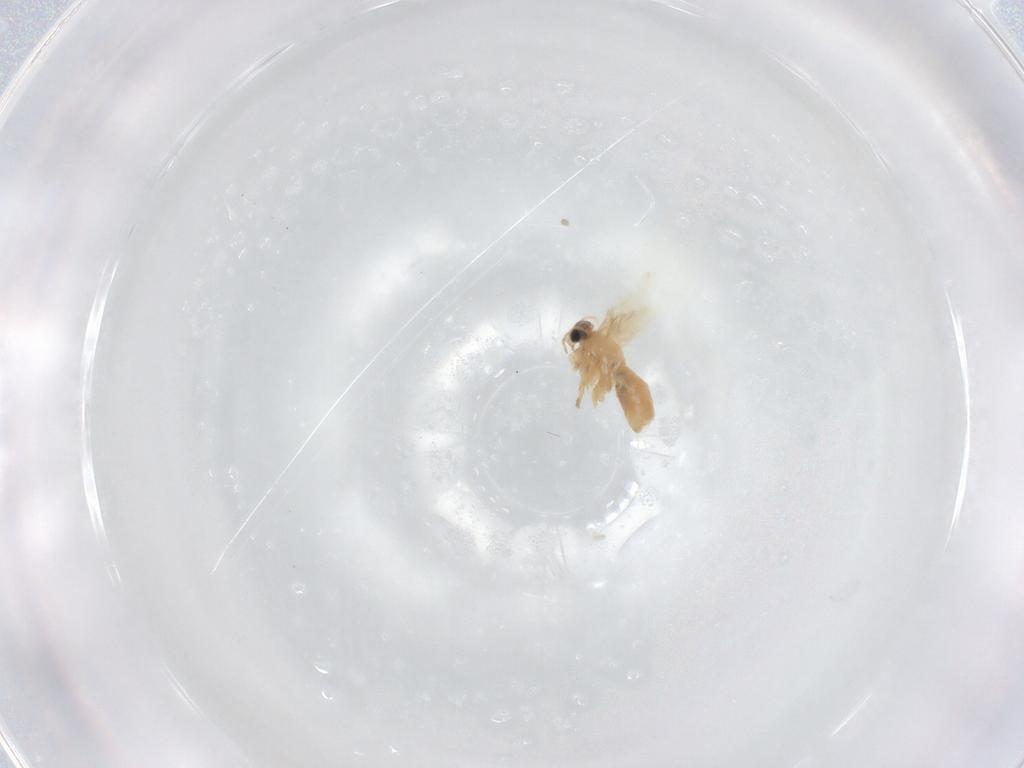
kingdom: Animalia
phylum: Arthropoda
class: Insecta
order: Lepidoptera
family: Nepticulidae
